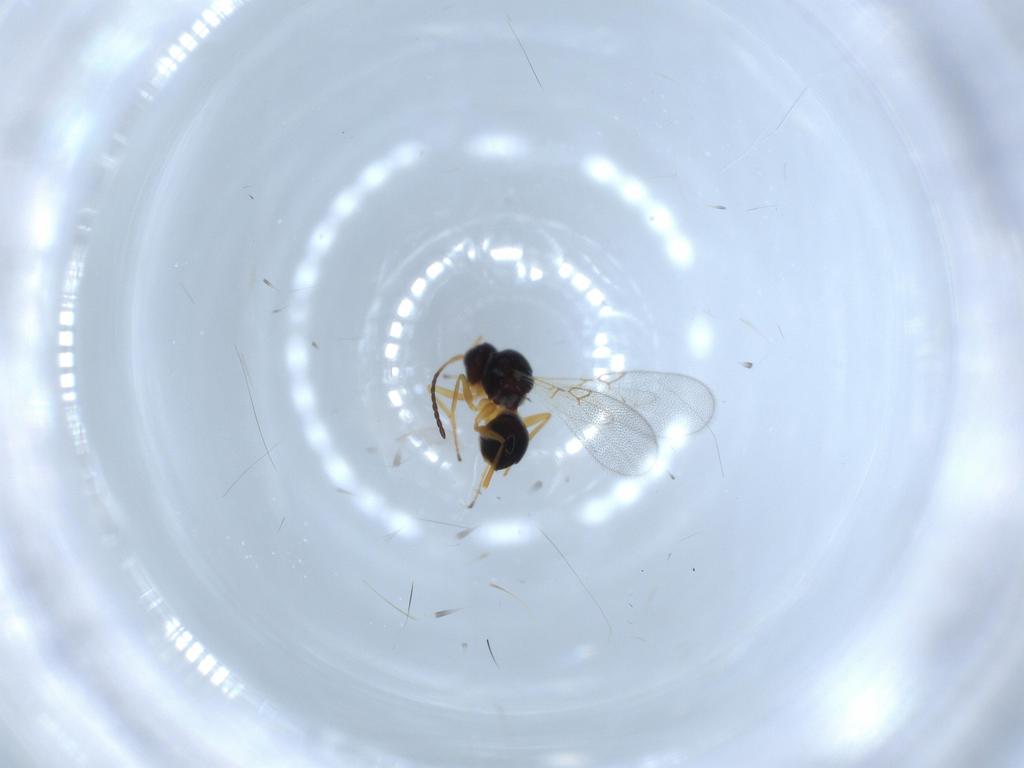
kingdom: Animalia
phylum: Arthropoda
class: Insecta
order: Hymenoptera
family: Figitidae
